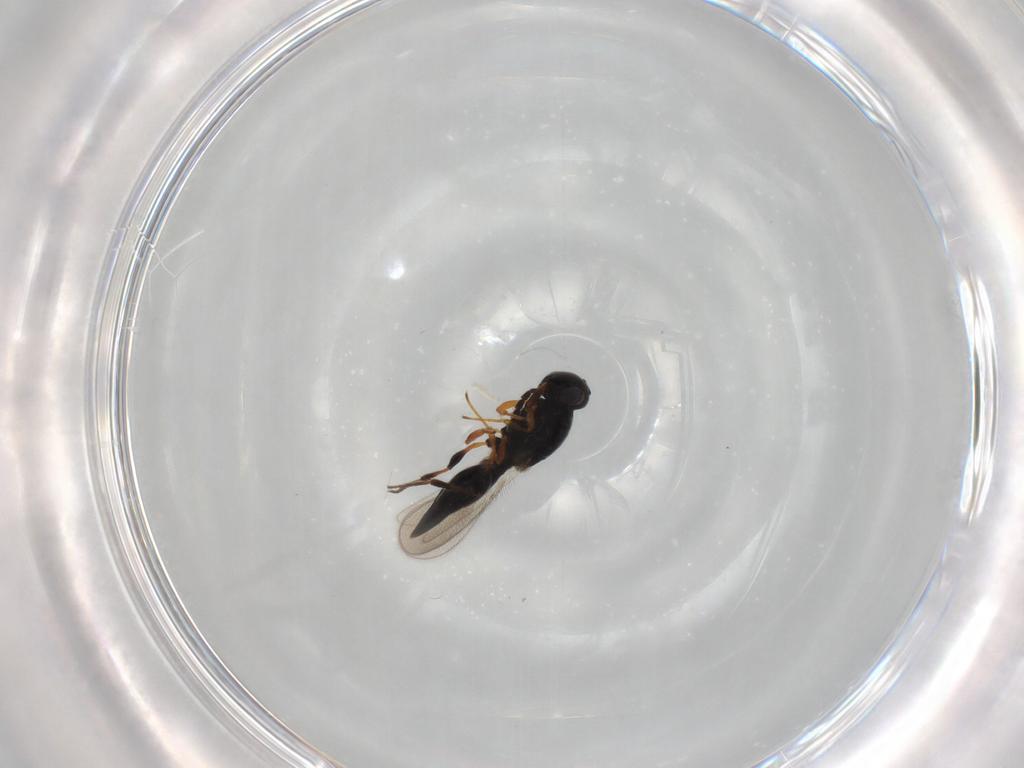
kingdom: Animalia
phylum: Arthropoda
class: Insecta
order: Hymenoptera
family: Platygastridae
